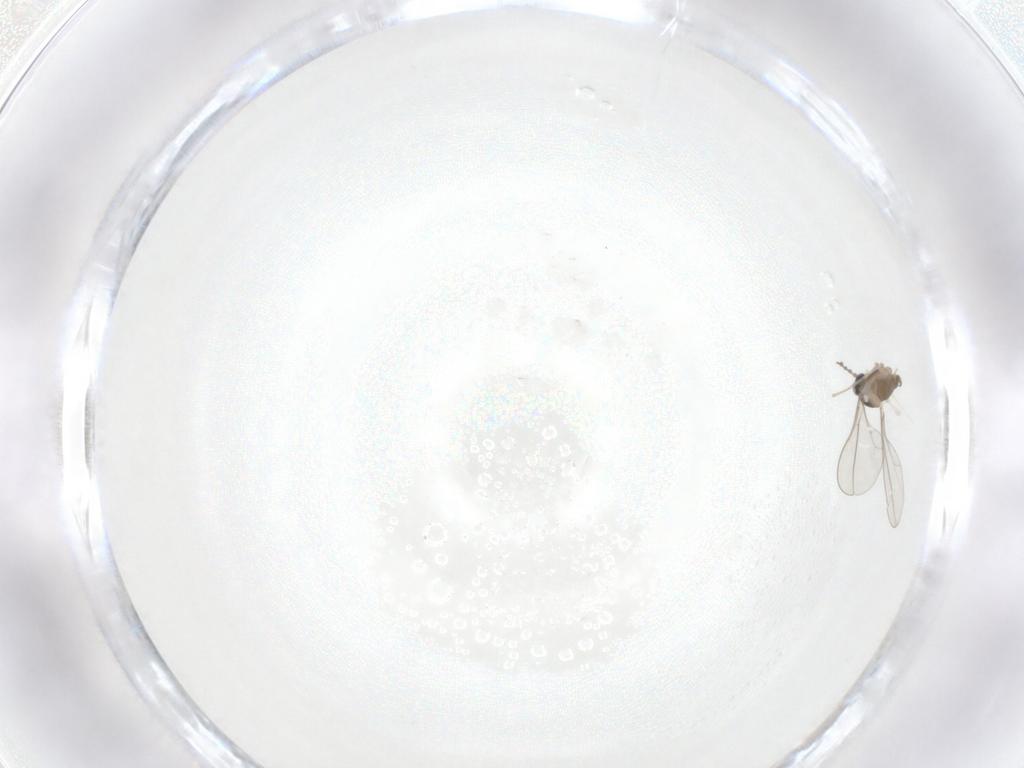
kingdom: Animalia
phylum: Arthropoda
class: Insecta
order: Diptera
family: Cecidomyiidae
